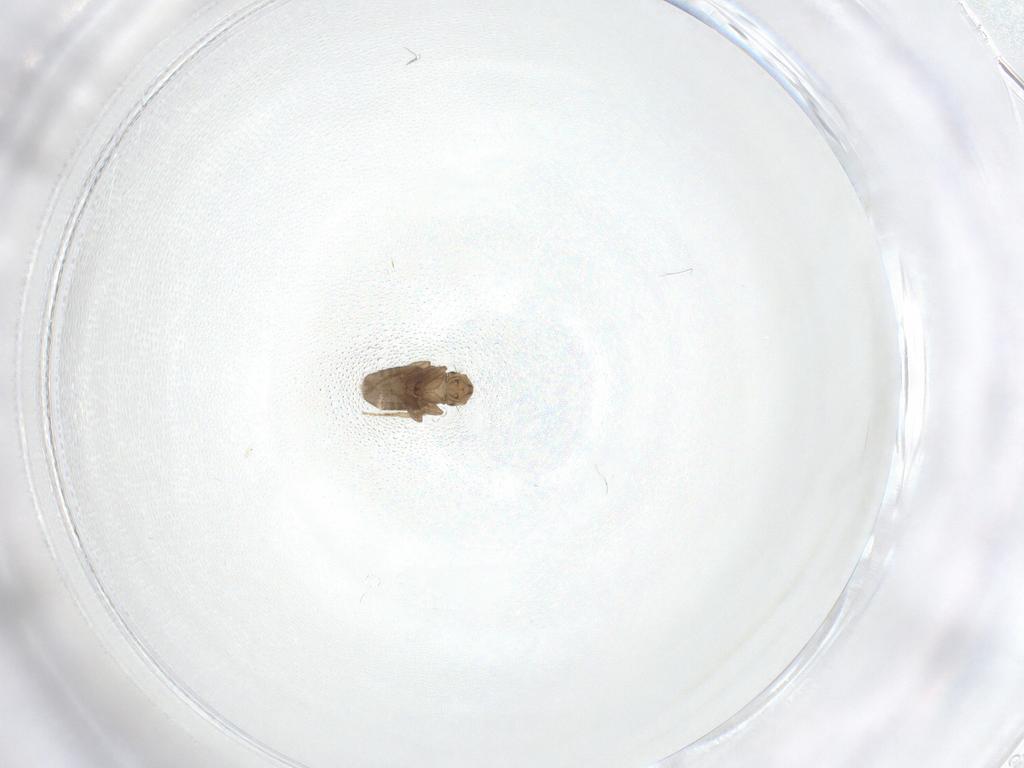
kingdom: Animalia
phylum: Arthropoda
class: Insecta
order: Diptera
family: Phoridae
